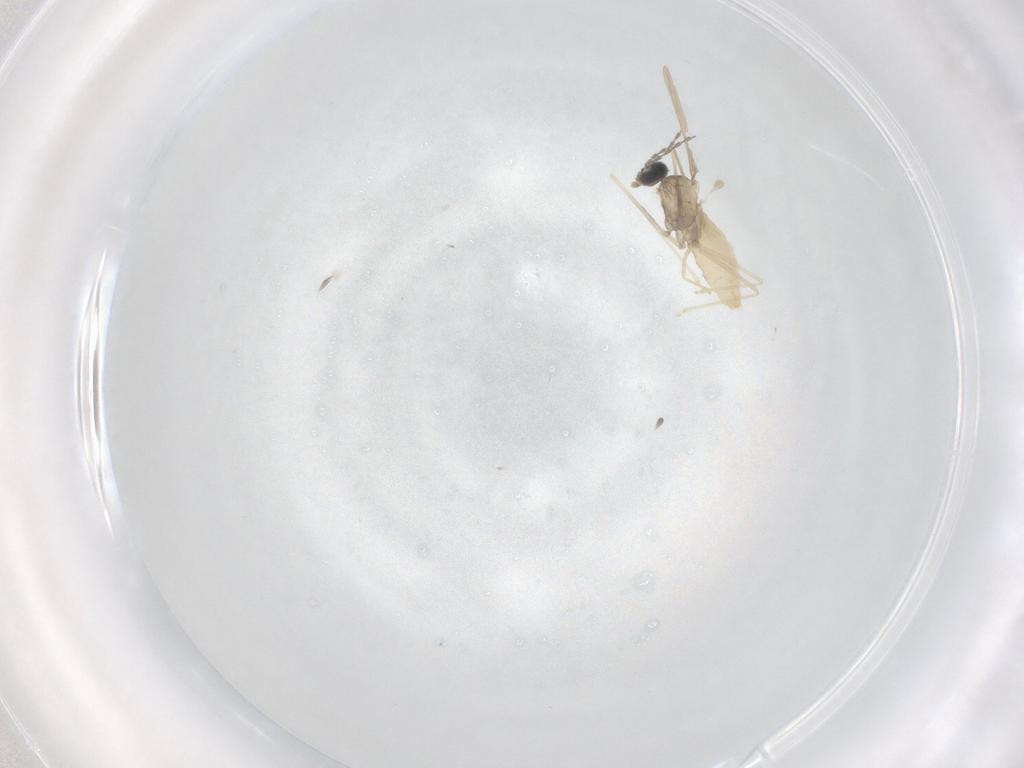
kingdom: Animalia
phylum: Arthropoda
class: Insecta
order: Diptera
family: Cecidomyiidae
